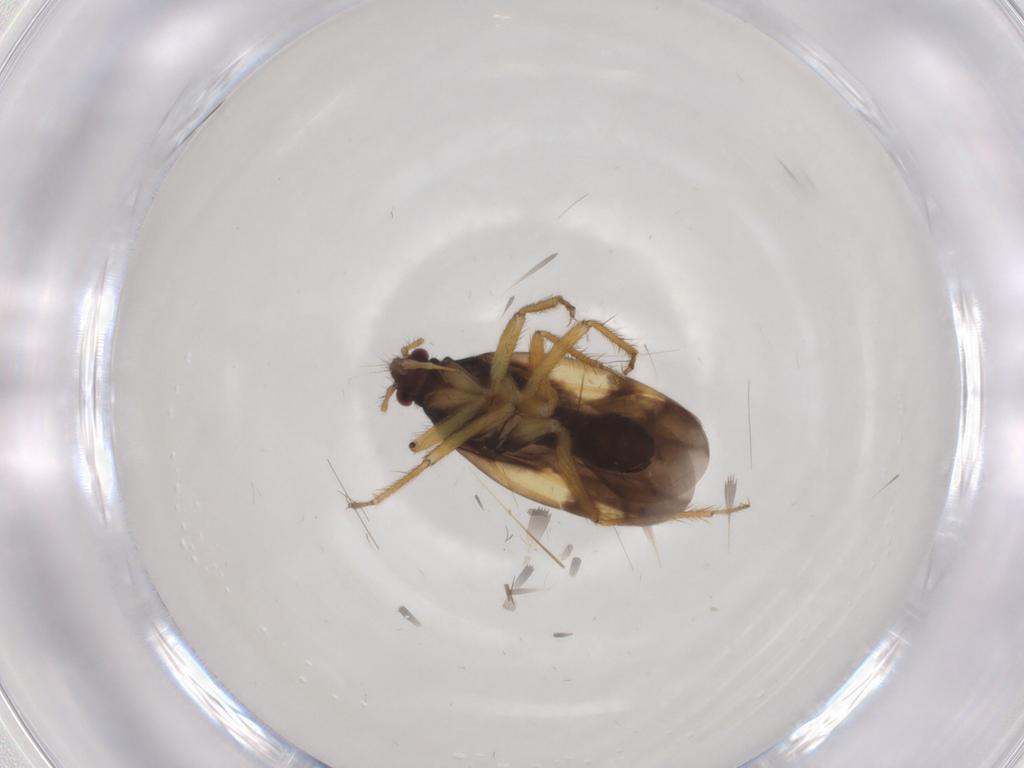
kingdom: Animalia
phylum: Arthropoda
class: Insecta
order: Hemiptera
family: Ceratocombidae
